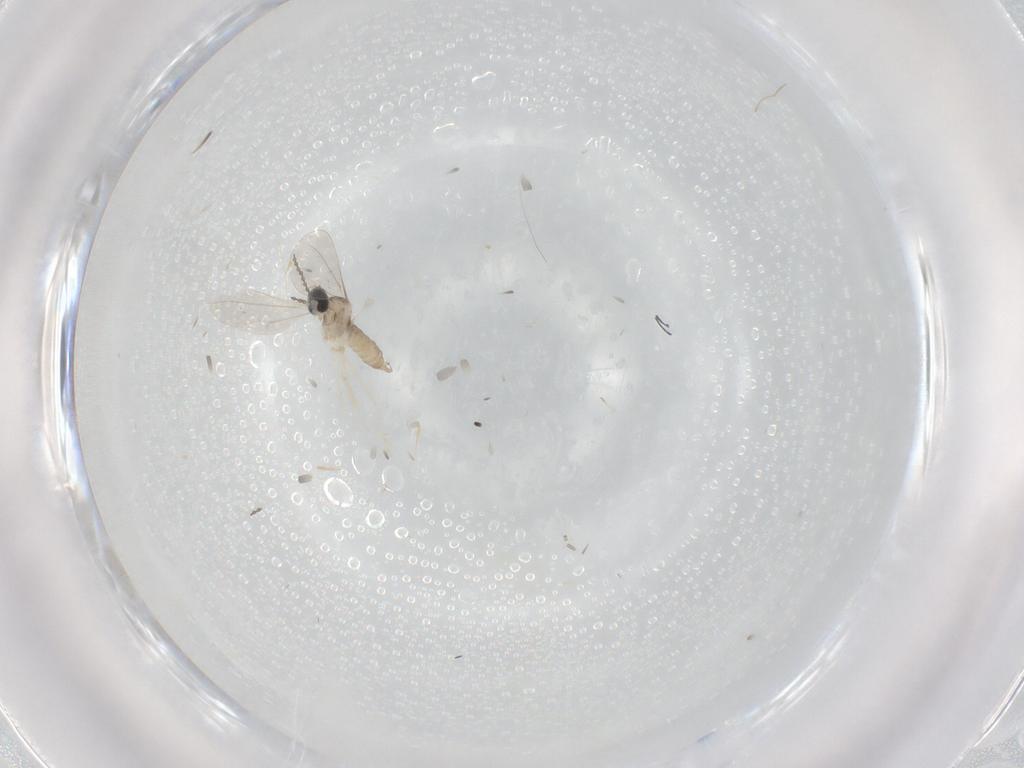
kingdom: Animalia
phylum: Arthropoda
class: Insecta
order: Diptera
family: Cecidomyiidae
